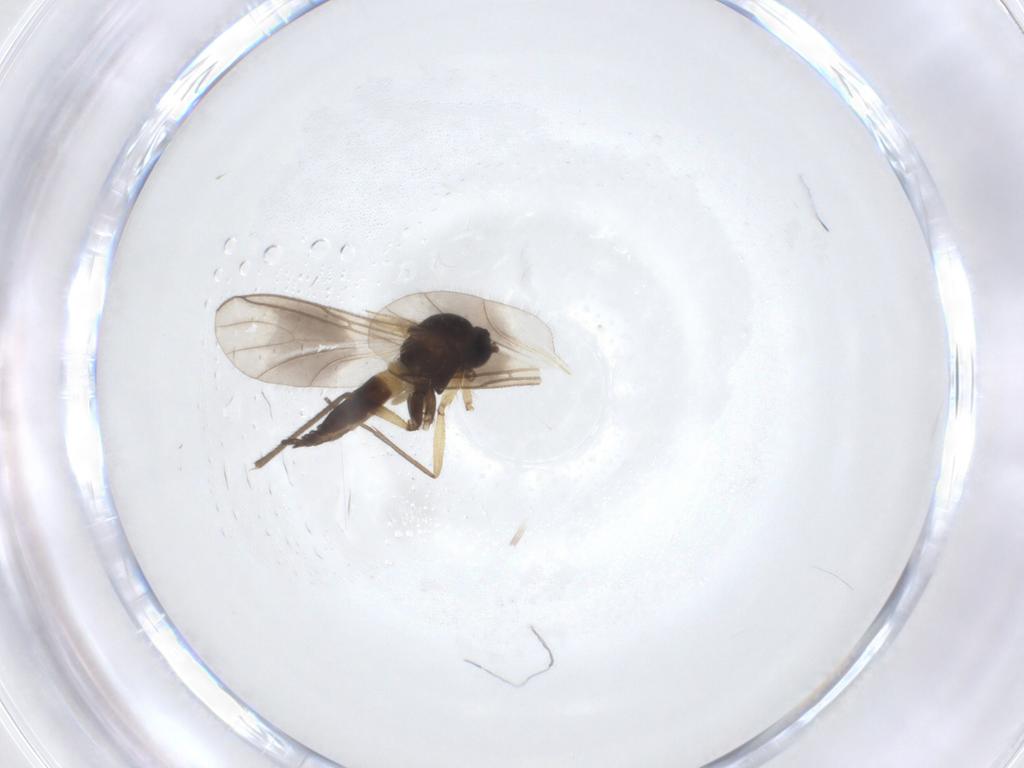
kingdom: Animalia
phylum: Arthropoda
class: Insecta
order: Diptera
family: Sciaridae
